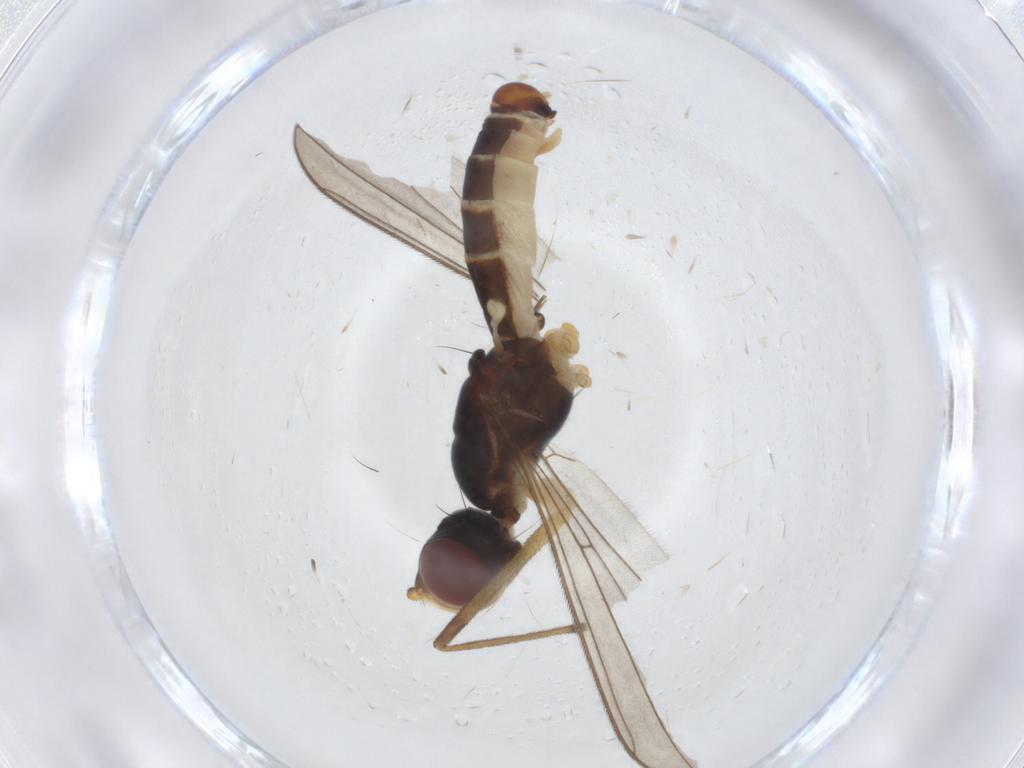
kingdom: Animalia
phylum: Arthropoda
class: Insecta
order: Diptera
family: Micropezidae
